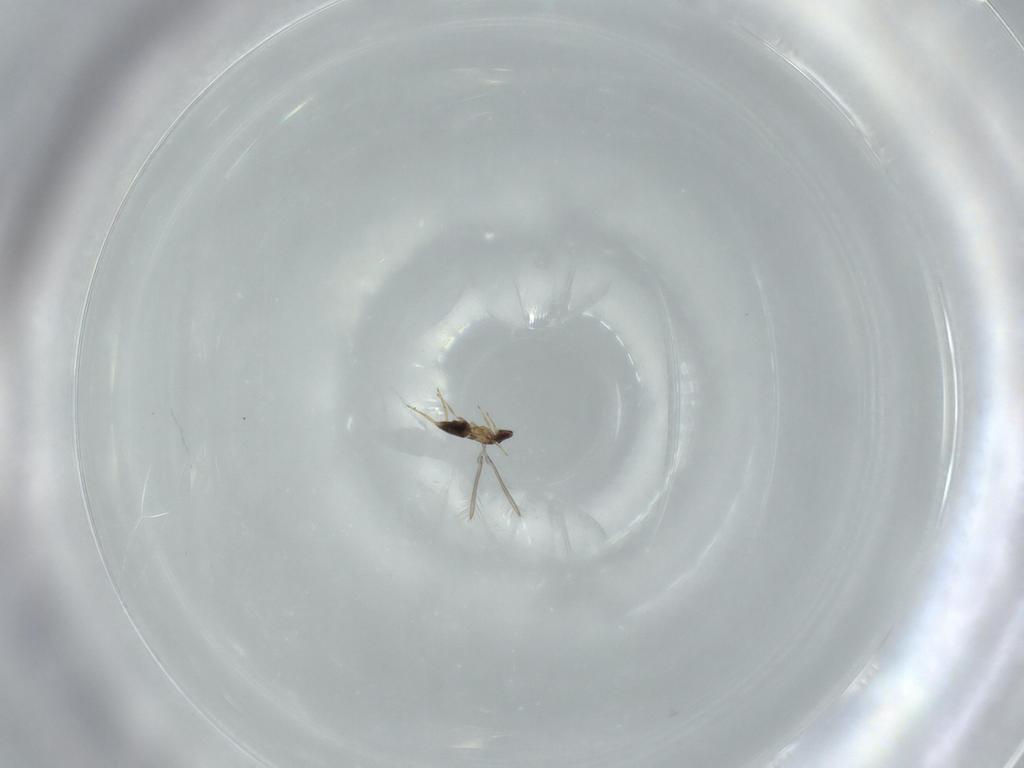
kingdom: Animalia
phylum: Arthropoda
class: Insecta
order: Hymenoptera
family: Mymaridae
